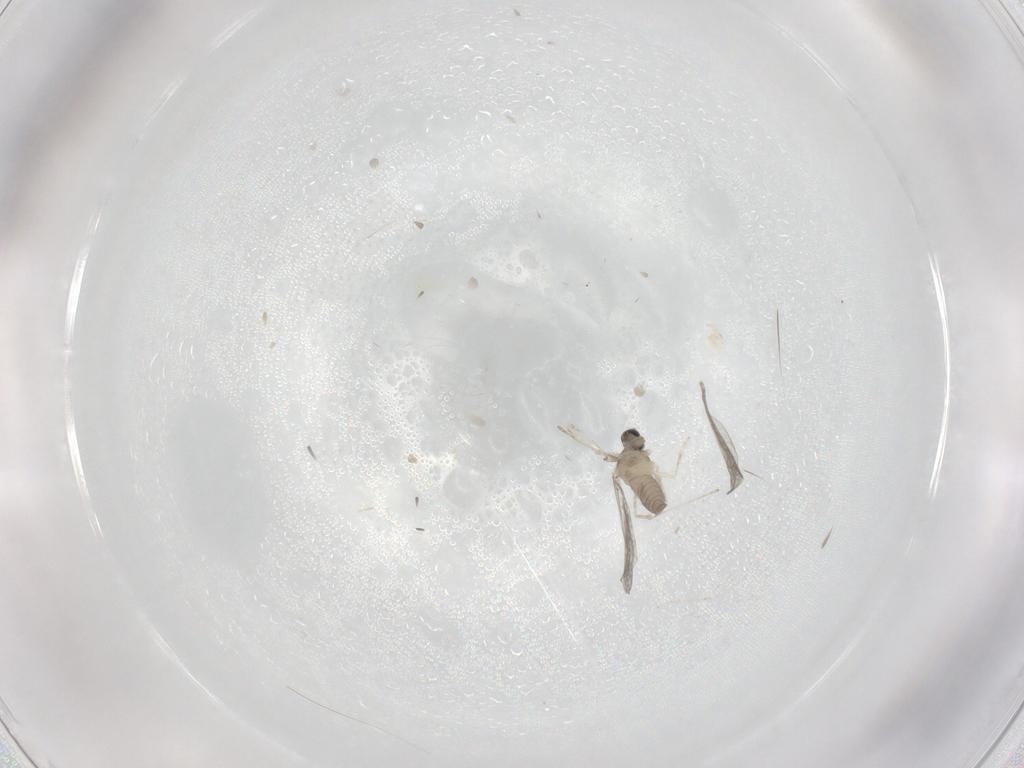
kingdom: Animalia
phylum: Arthropoda
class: Insecta
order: Diptera
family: Cecidomyiidae
